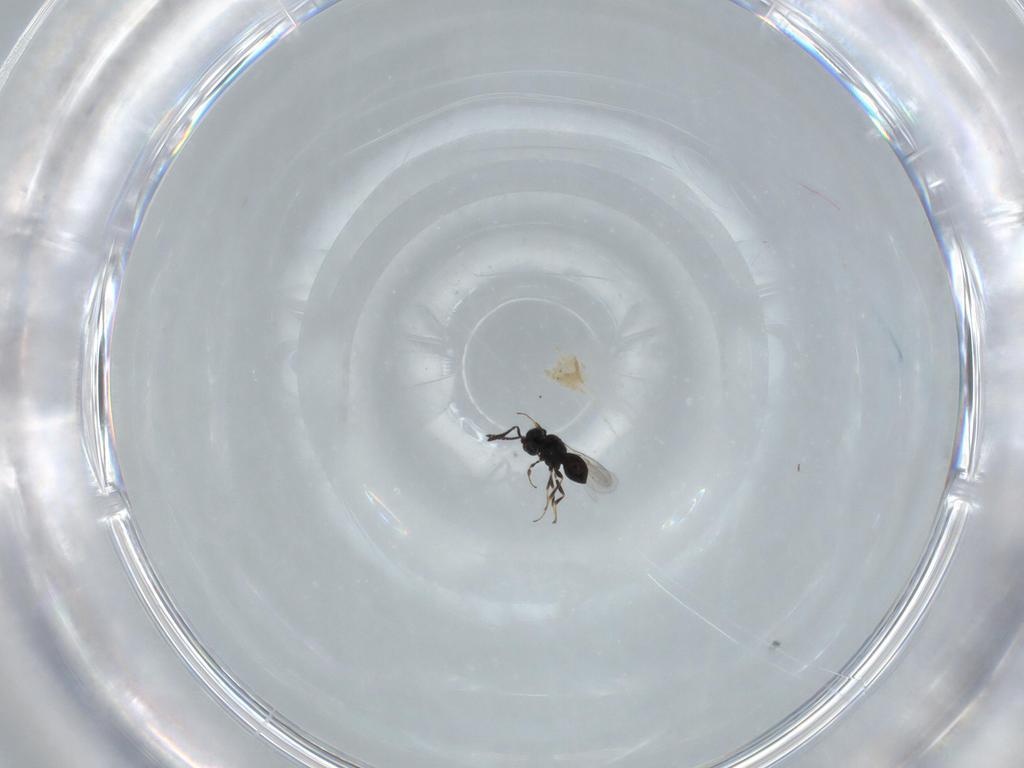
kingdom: Animalia
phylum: Arthropoda
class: Insecta
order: Hymenoptera
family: Scelionidae
